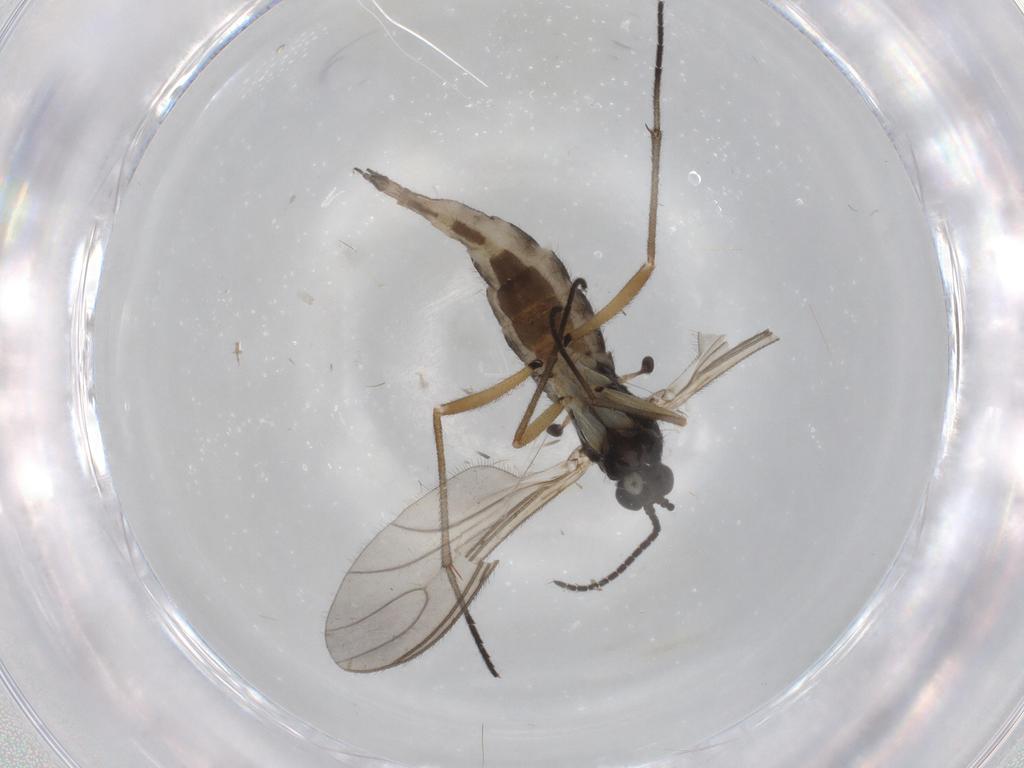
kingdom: Animalia
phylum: Arthropoda
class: Insecta
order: Diptera
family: Sciaridae
